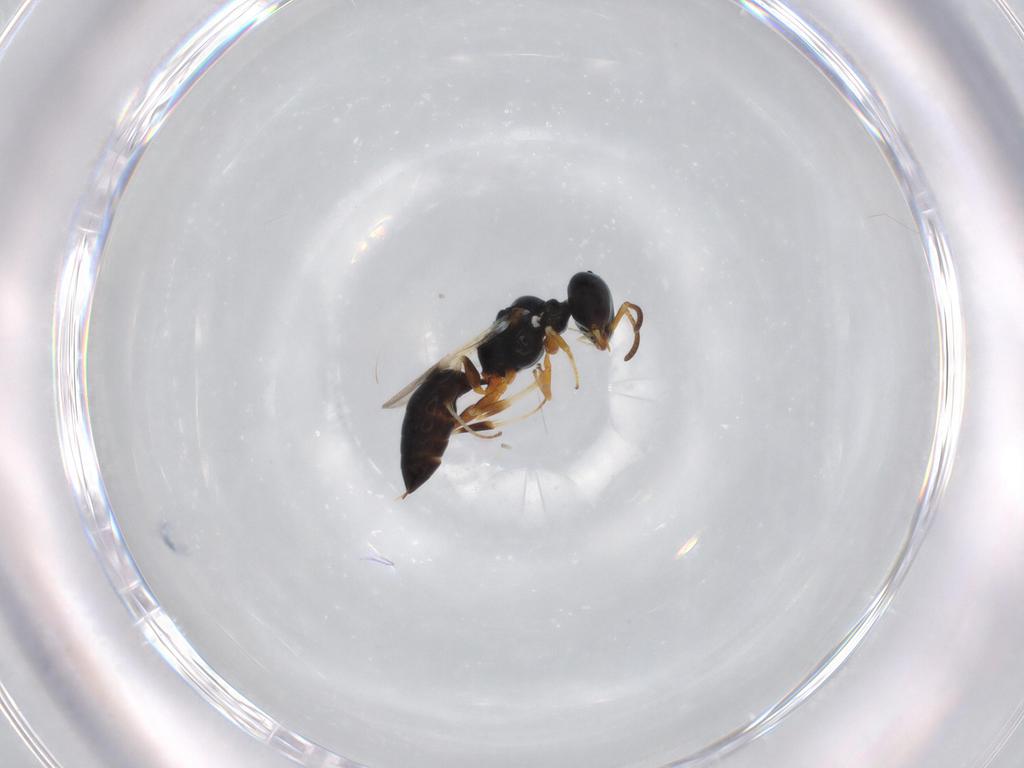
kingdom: Animalia
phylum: Arthropoda
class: Insecta
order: Hymenoptera
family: Pemphredonidae
